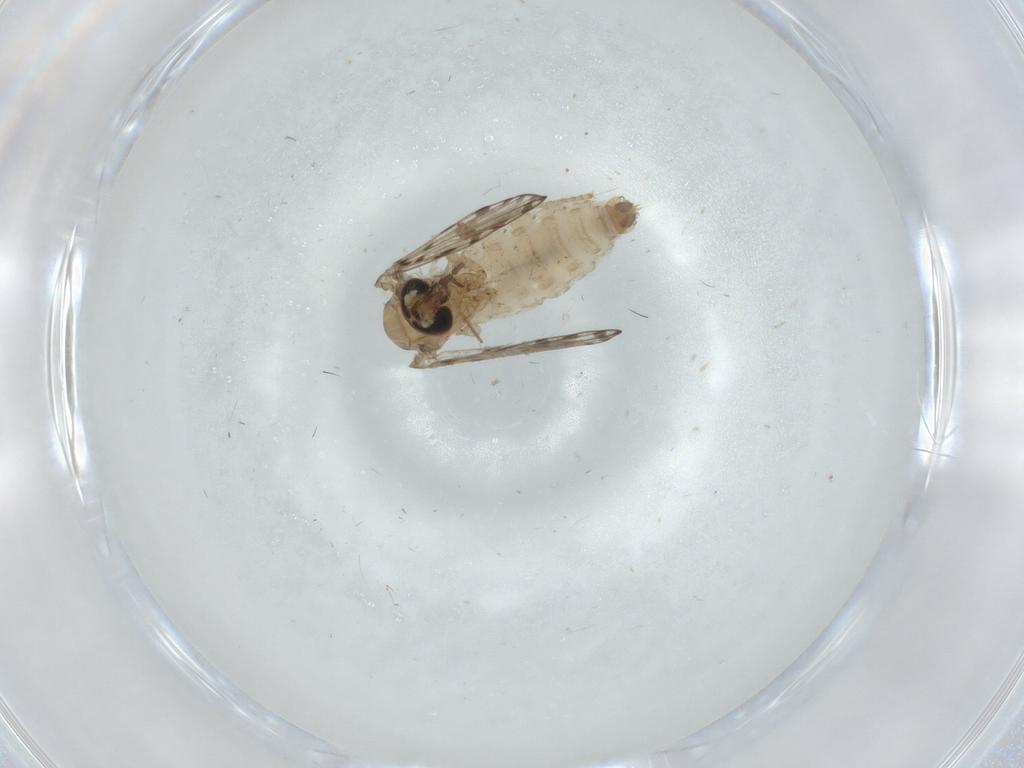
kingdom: Animalia
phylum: Arthropoda
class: Insecta
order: Diptera
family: Psychodidae
